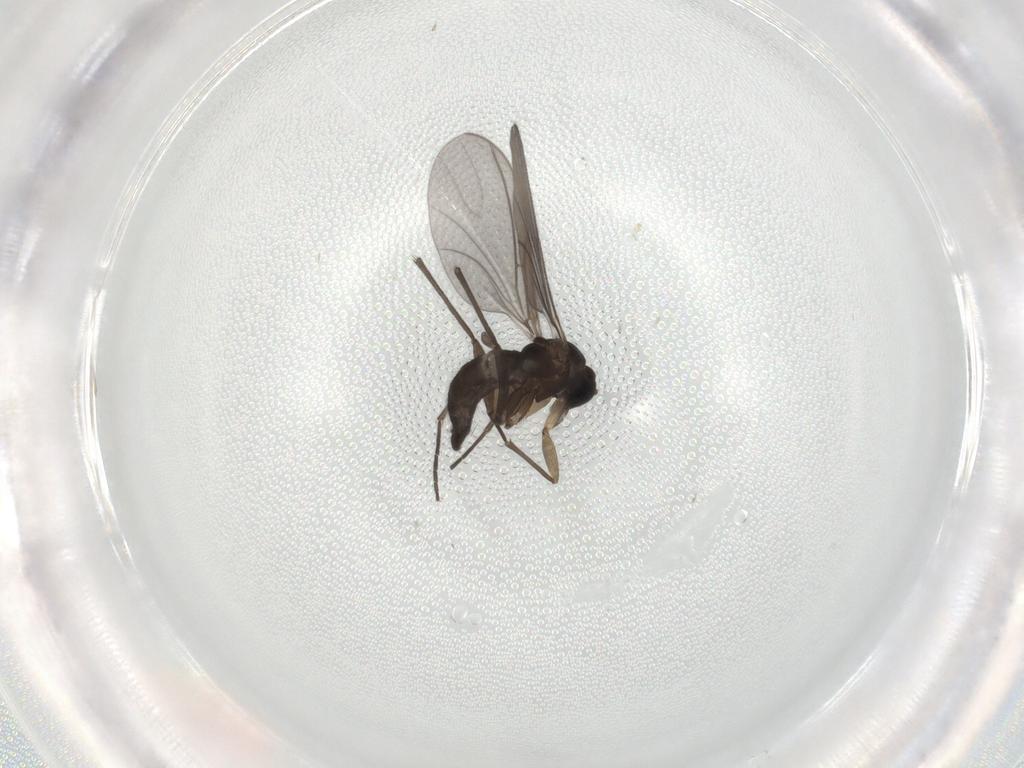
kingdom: Animalia
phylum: Arthropoda
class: Insecta
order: Diptera
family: Phoridae
